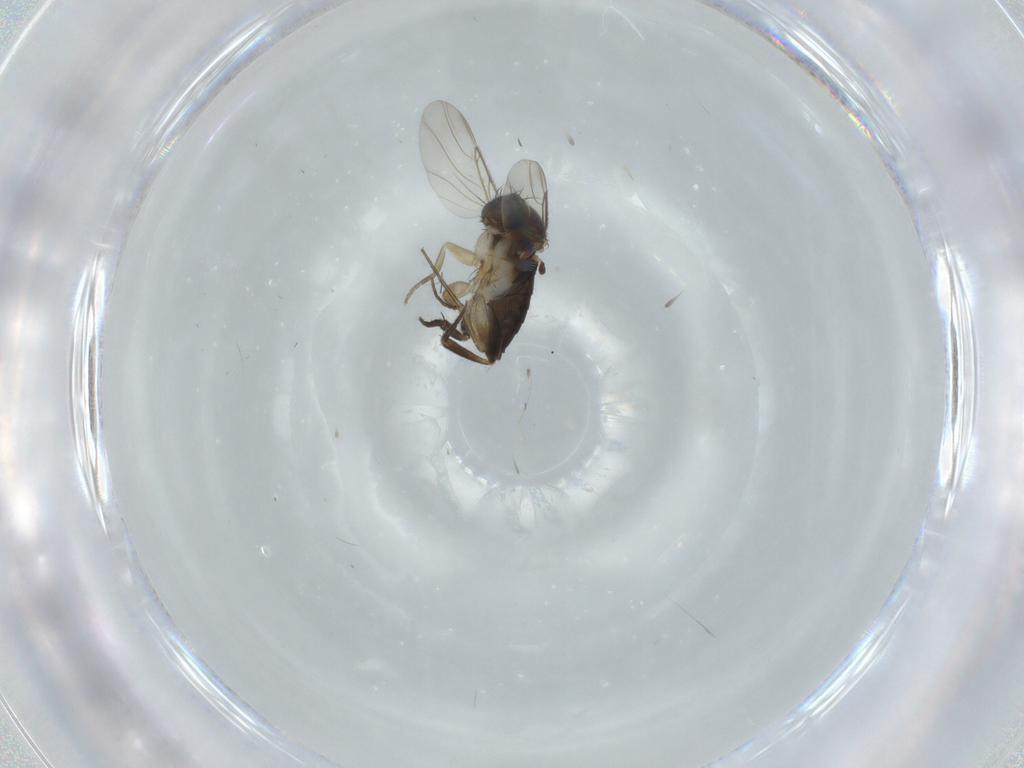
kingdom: Animalia
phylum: Arthropoda
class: Insecta
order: Diptera
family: Phoridae
